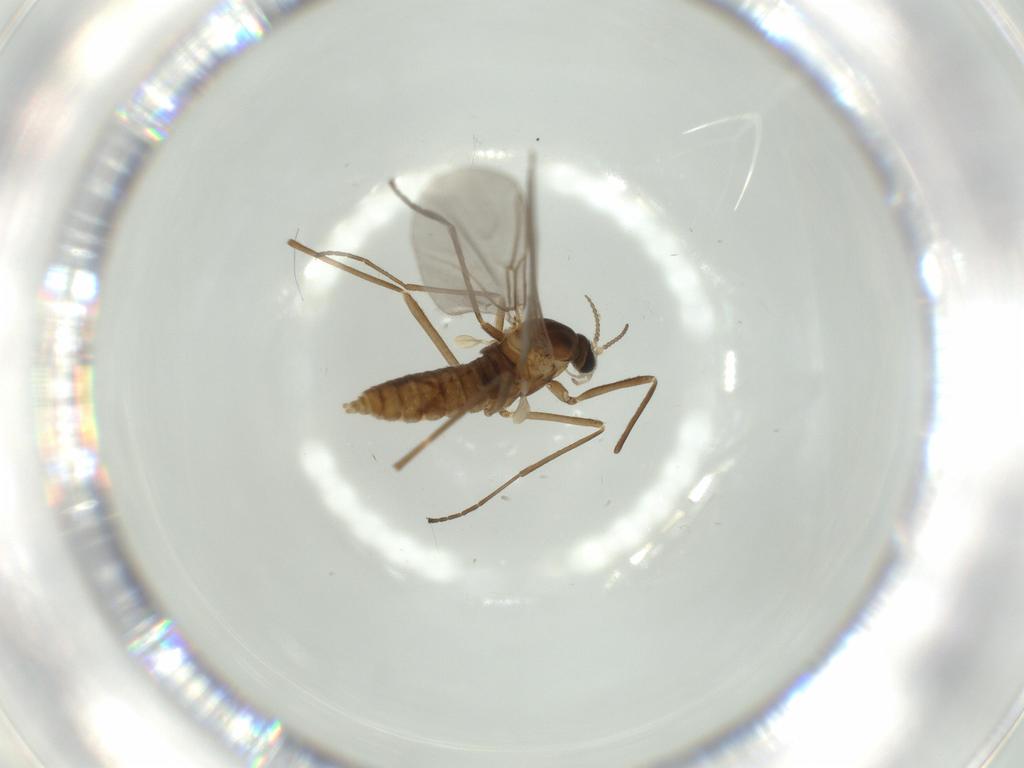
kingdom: Animalia
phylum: Arthropoda
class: Insecta
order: Diptera
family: Cecidomyiidae
